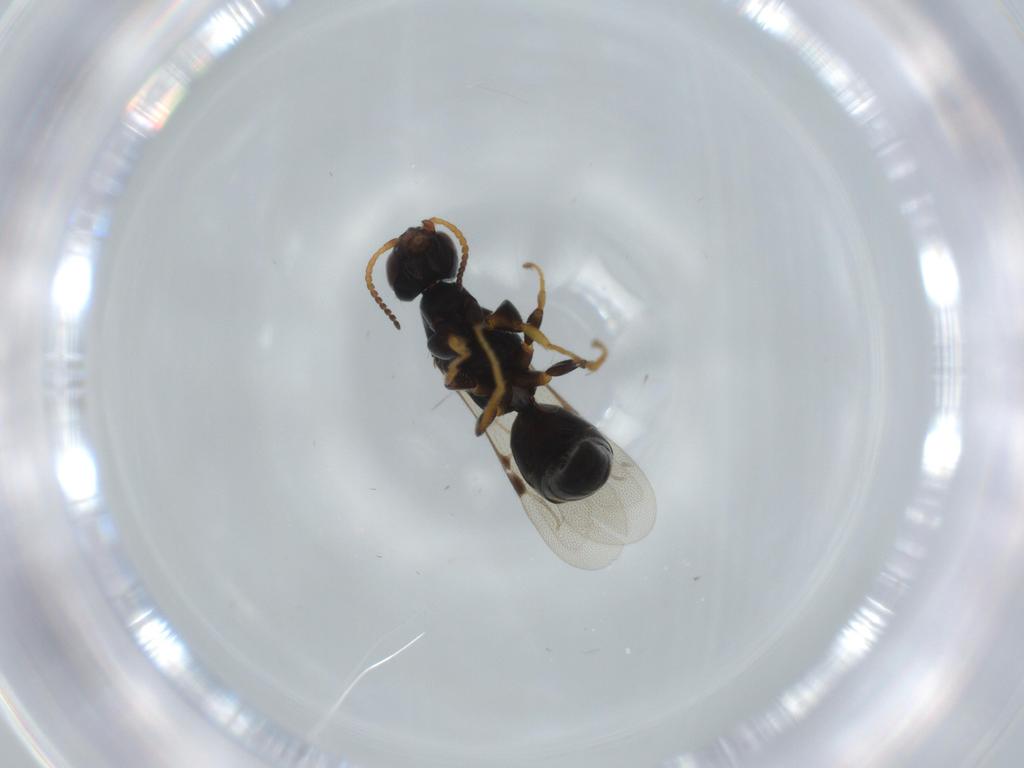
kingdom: Animalia
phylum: Arthropoda
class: Insecta
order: Hymenoptera
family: Bethylidae
